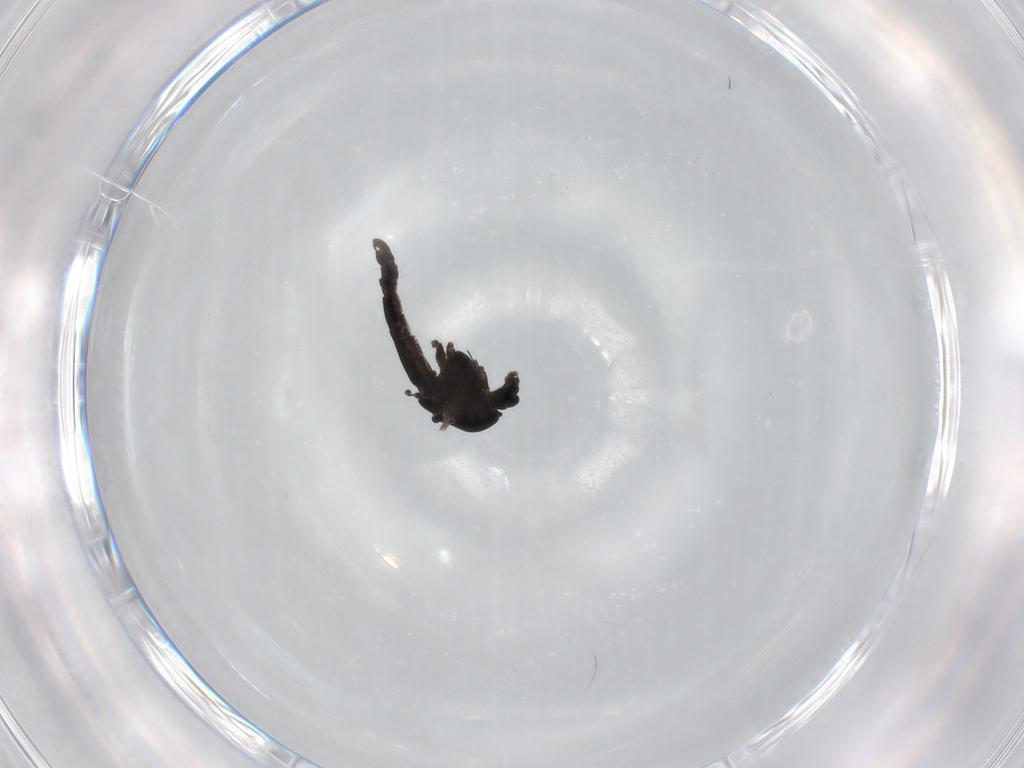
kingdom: Animalia
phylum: Arthropoda
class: Insecta
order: Diptera
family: Chironomidae
